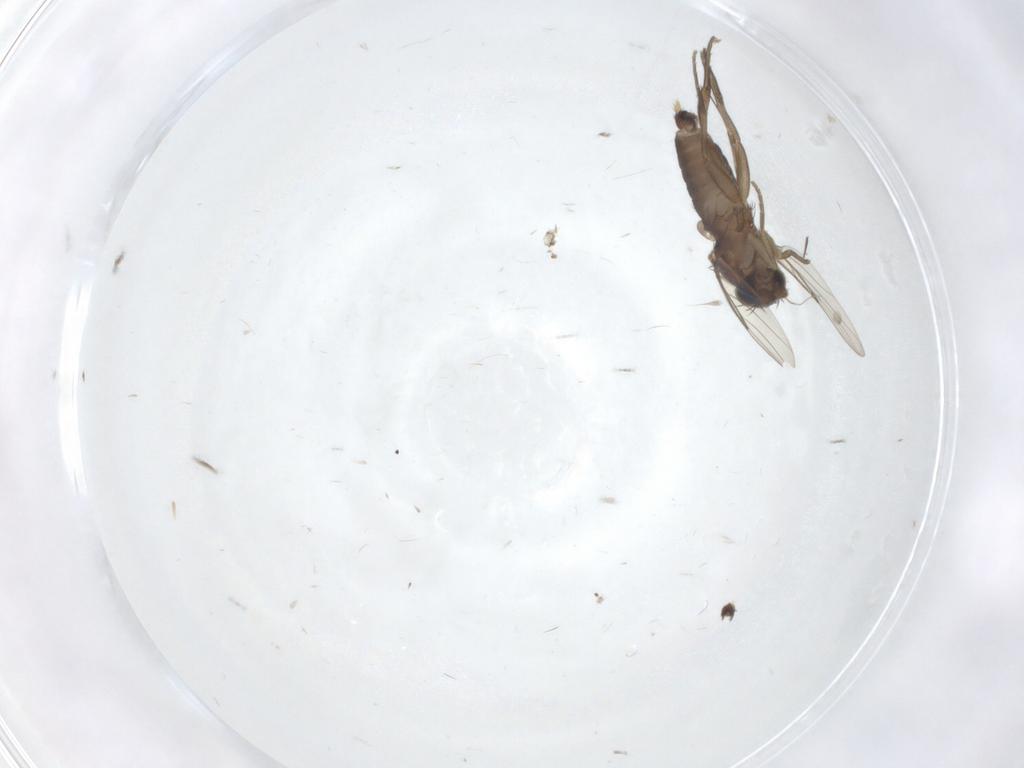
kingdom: Animalia
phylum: Arthropoda
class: Insecta
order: Diptera
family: Phoridae
